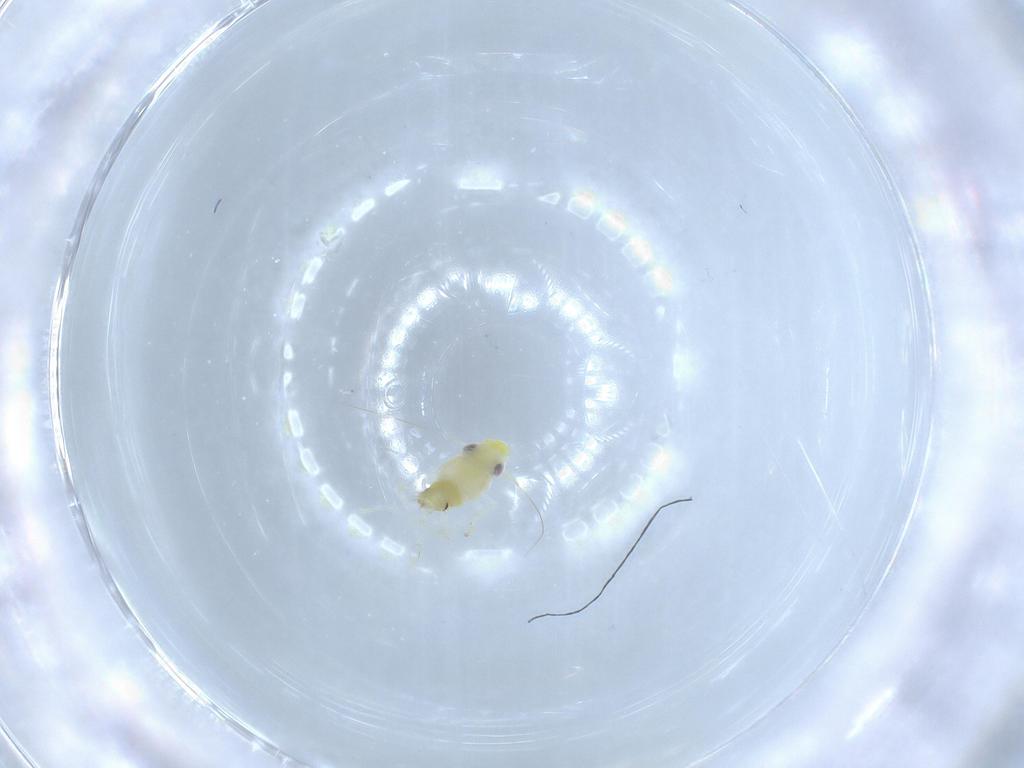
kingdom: Animalia
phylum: Arthropoda
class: Insecta
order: Hemiptera
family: Cicadellidae
